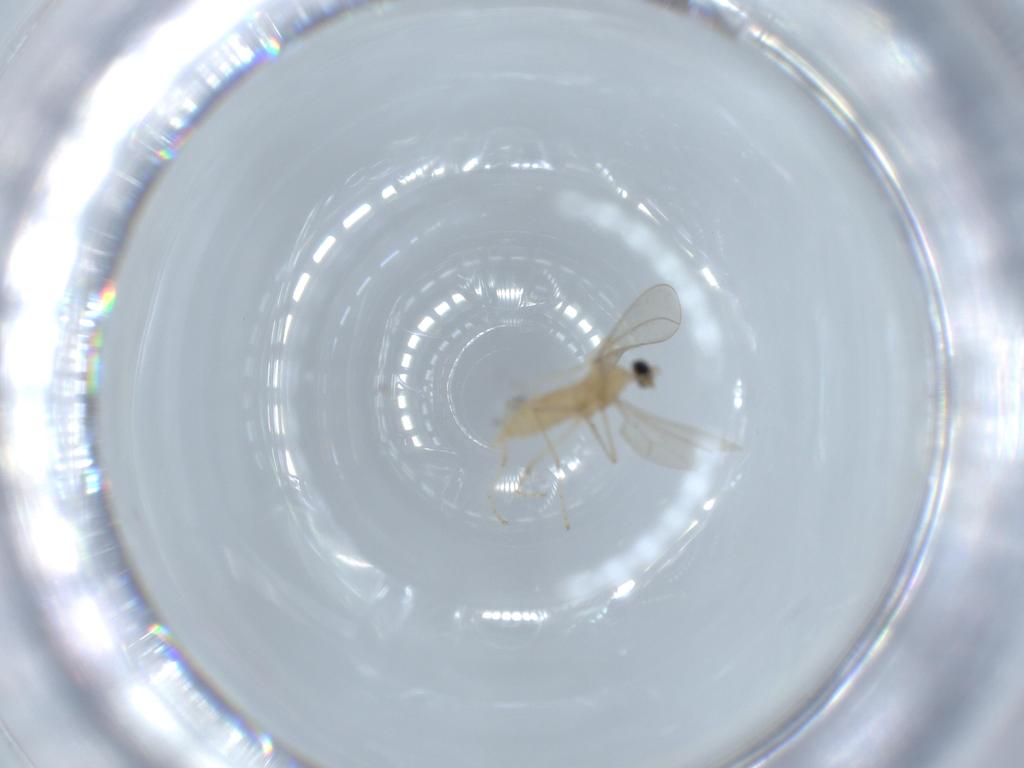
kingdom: Animalia
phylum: Arthropoda
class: Insecta
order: Diptera
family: Cecidomyiidae
